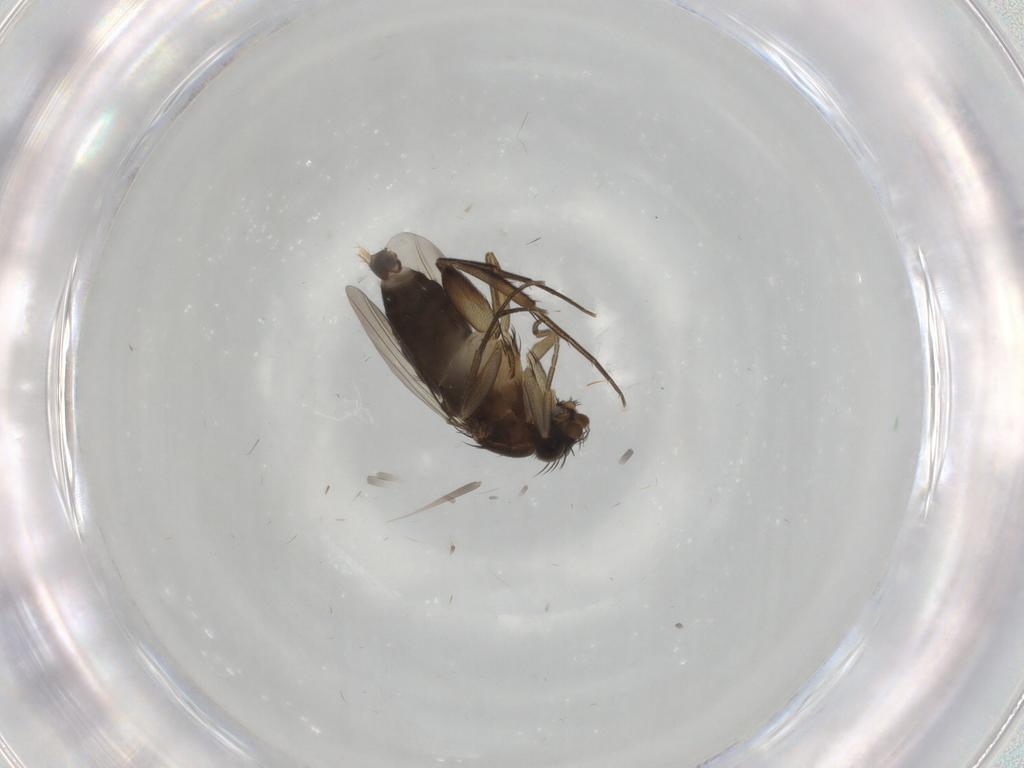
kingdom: Animalia
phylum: Arthropoda
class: Insecta
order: Diptera
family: Phoridae
